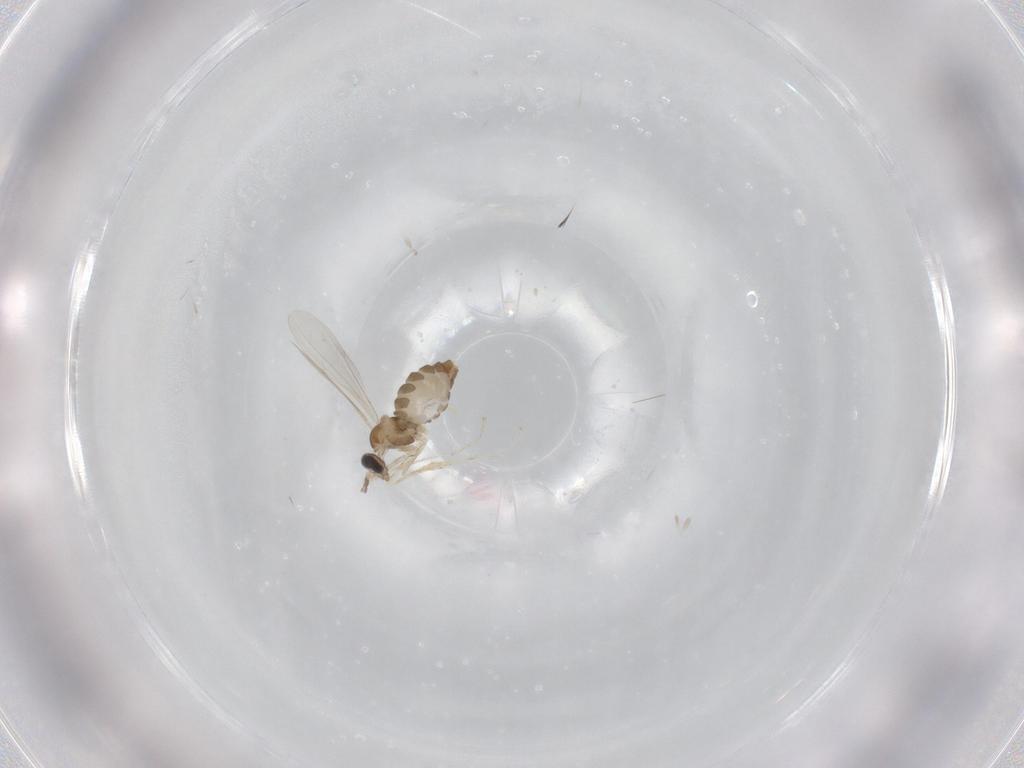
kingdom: Animalia
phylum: Arthropoda
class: Insecta
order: Diptera
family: Cecidomyiidae
